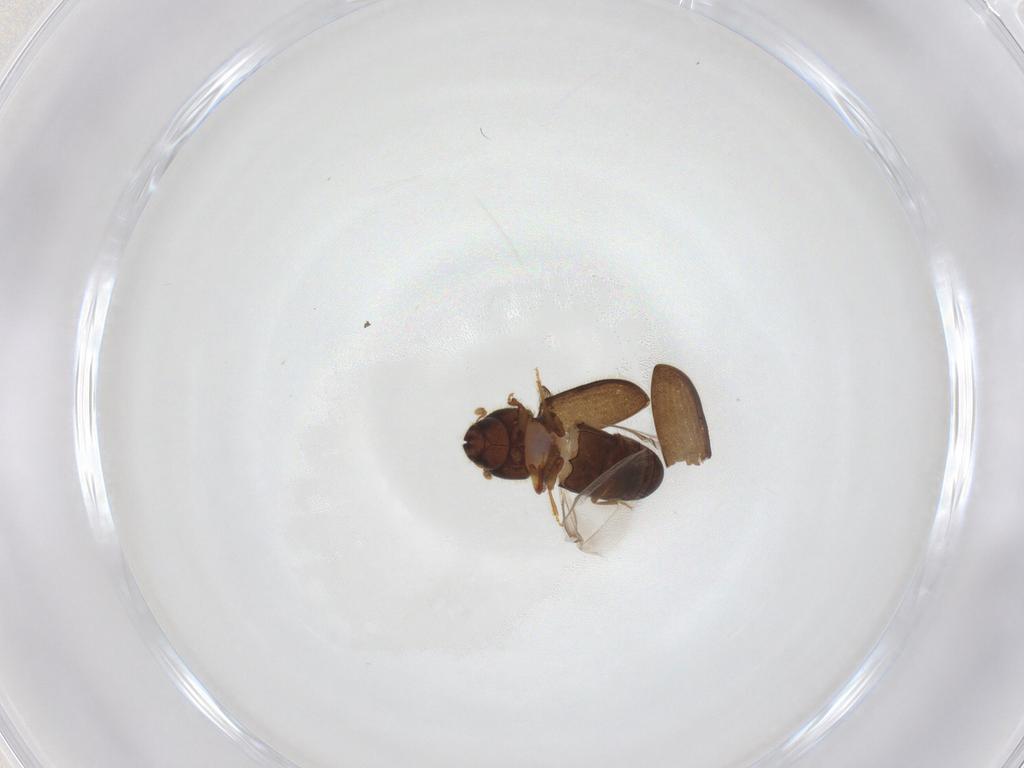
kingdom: Animalia
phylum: Arthropoda
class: Insecta
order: Coleoptera
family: Curculionidae
